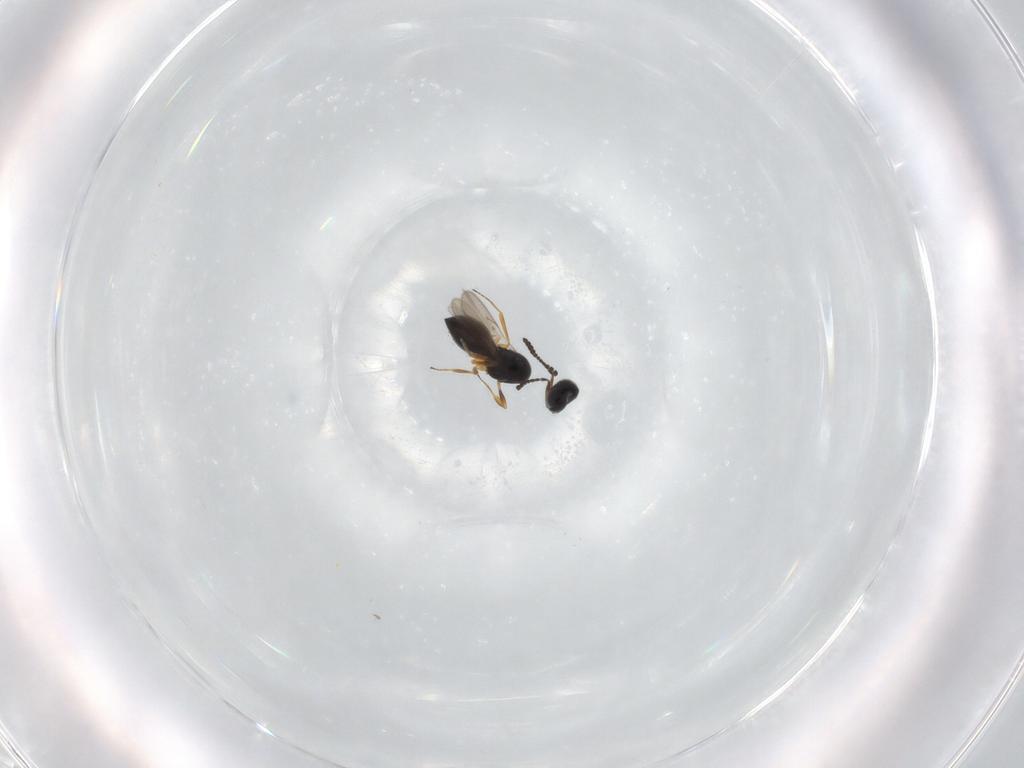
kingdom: Animalia
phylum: Arthropoda
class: Insecta
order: Hymenoptera
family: Scelionidae
